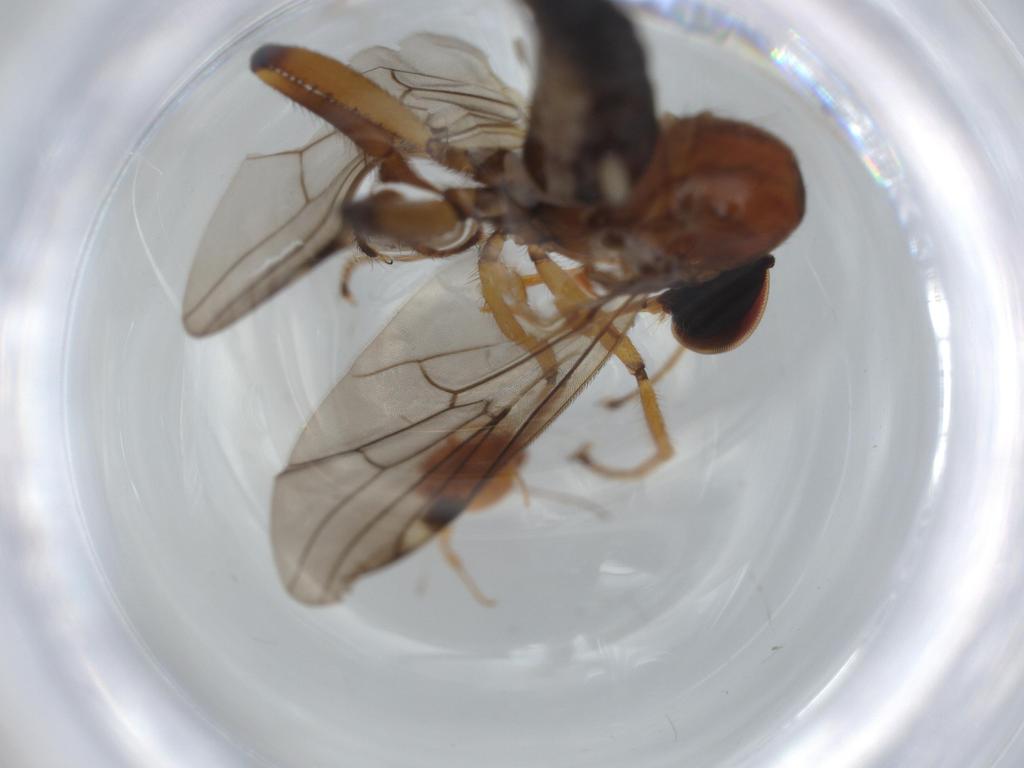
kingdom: Animalia
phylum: Arthropoda
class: Insecta
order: Diptera
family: Hybotidae
